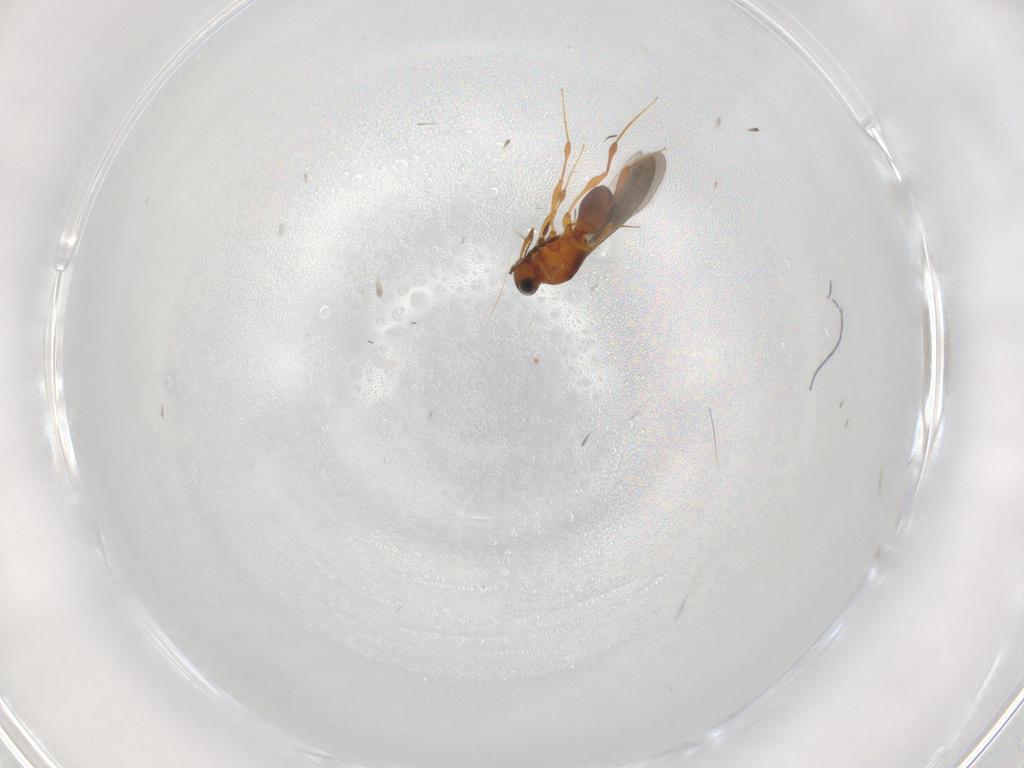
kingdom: Animalia
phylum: Arthropoda
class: Insecta
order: Hymenoptera
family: Platygastridae
